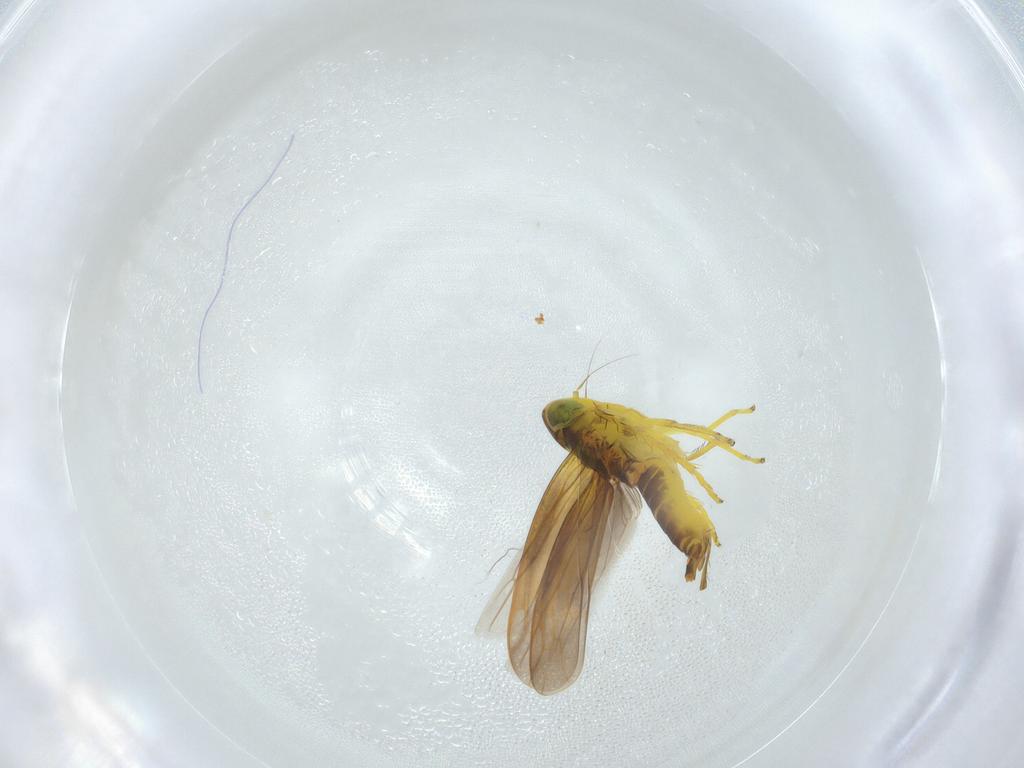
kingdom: Animalia
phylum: Arthropoda
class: Insecta
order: Hemiptera
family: Cicadellidae
